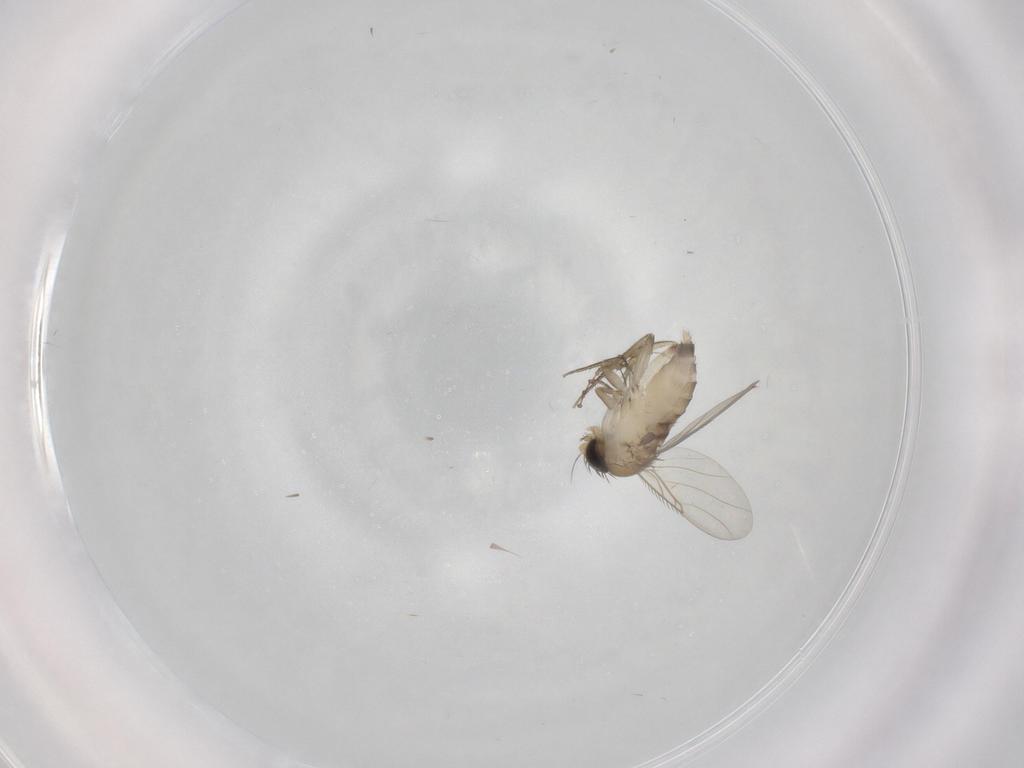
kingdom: Animalia
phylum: Arthropoda
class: Insecta
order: Diptera
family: Phoridae
